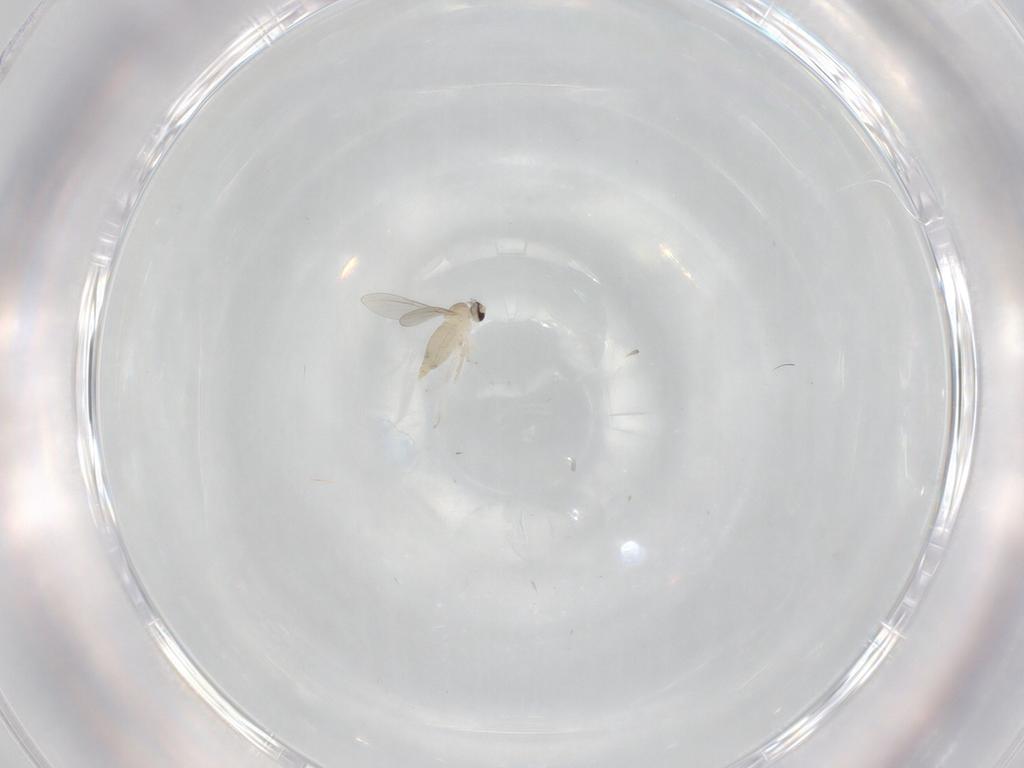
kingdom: Animalia
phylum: Arthropoda
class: Insecta
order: Diptera
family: Cecidomyiidae
